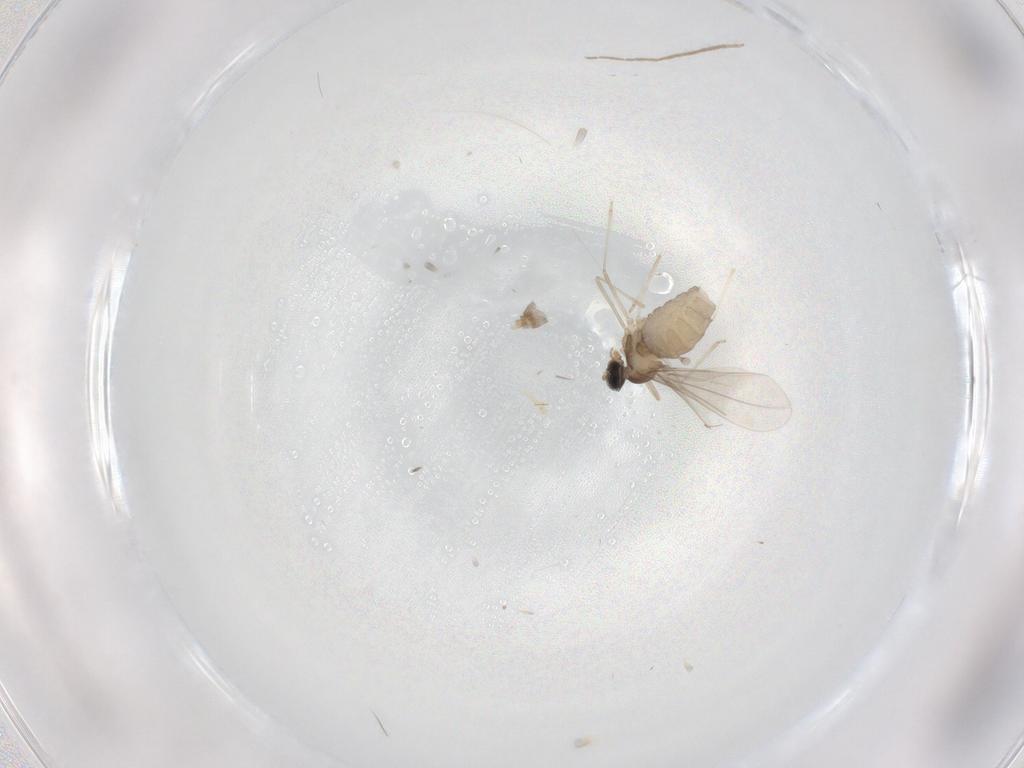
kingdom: Animalia
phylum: Arthropoda
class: Insecta
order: Diptera
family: Cecidomyiidae
